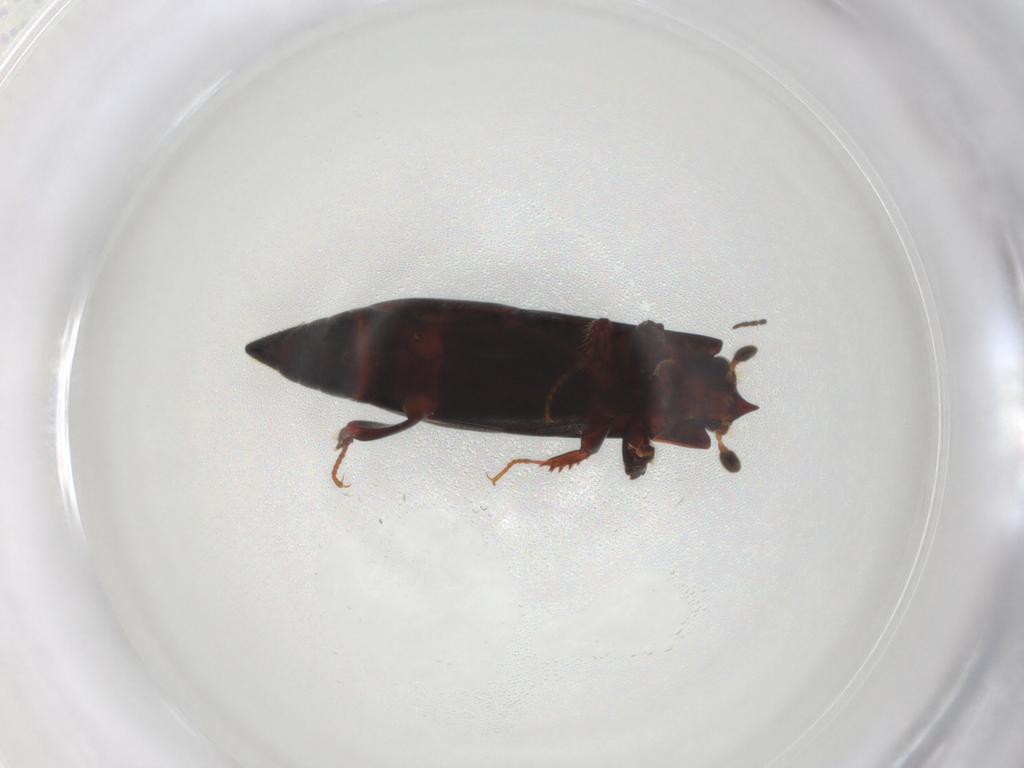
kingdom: Animalia
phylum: Arthropoda
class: Insecta
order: Coleoptera
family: Histeridae
